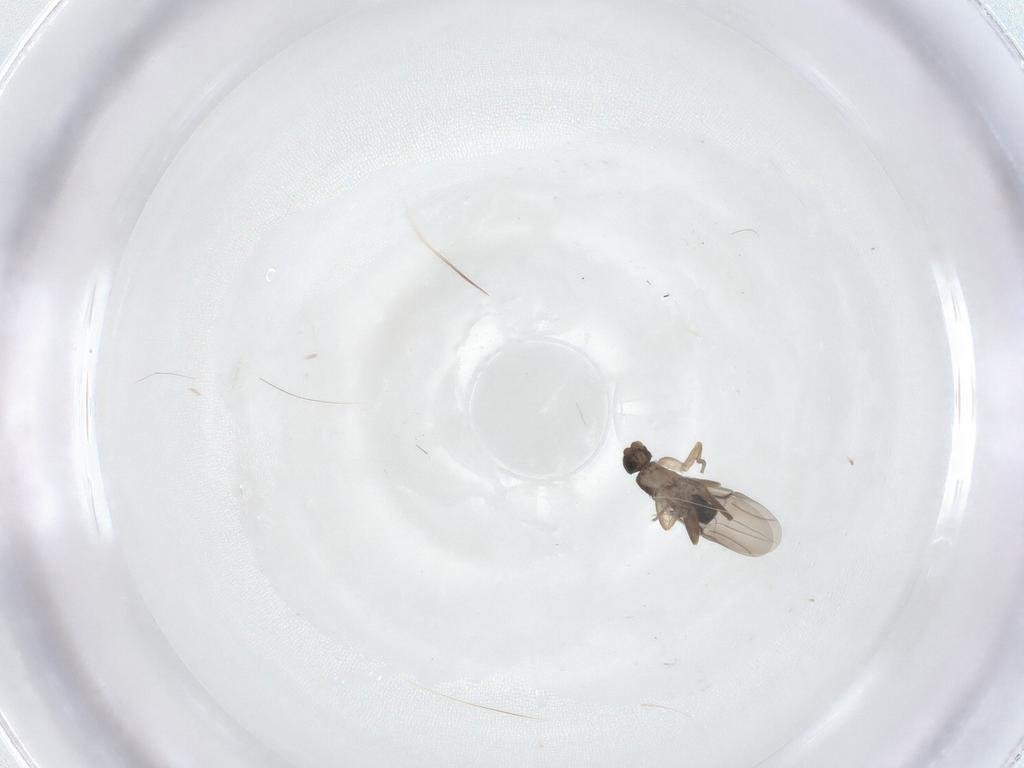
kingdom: Animalia
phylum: Arthropoda
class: Insecta
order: Diptera
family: Phoridae
